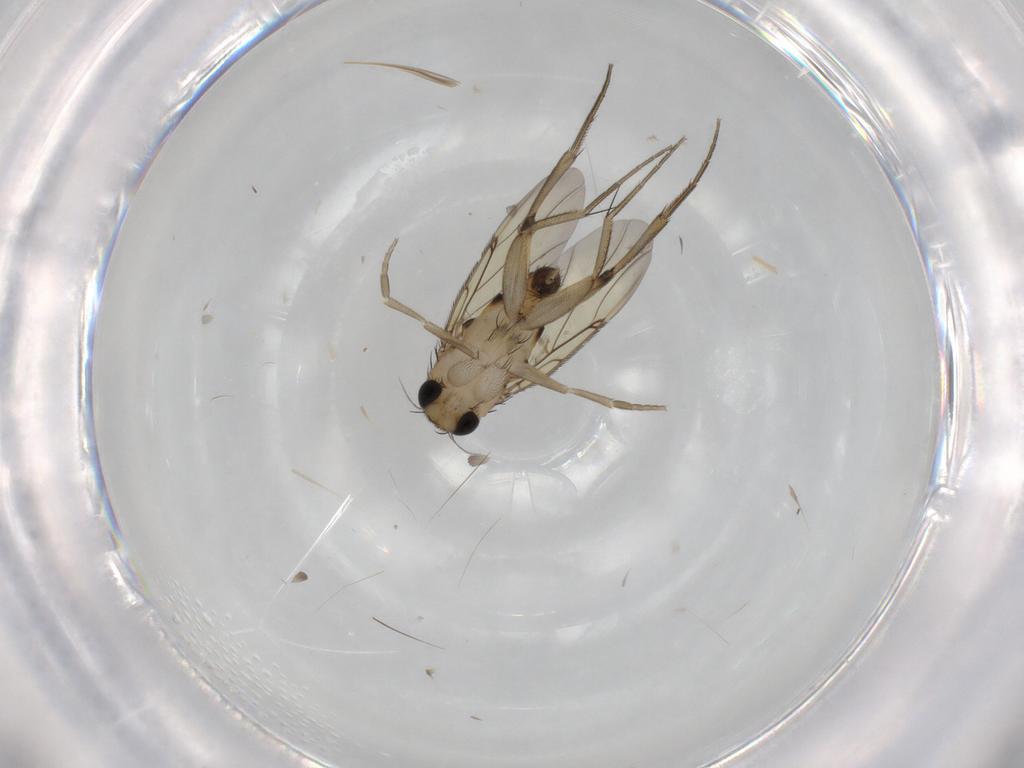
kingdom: Animalia
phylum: Arthropoda
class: Insecta
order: Diptera
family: Phoridae
